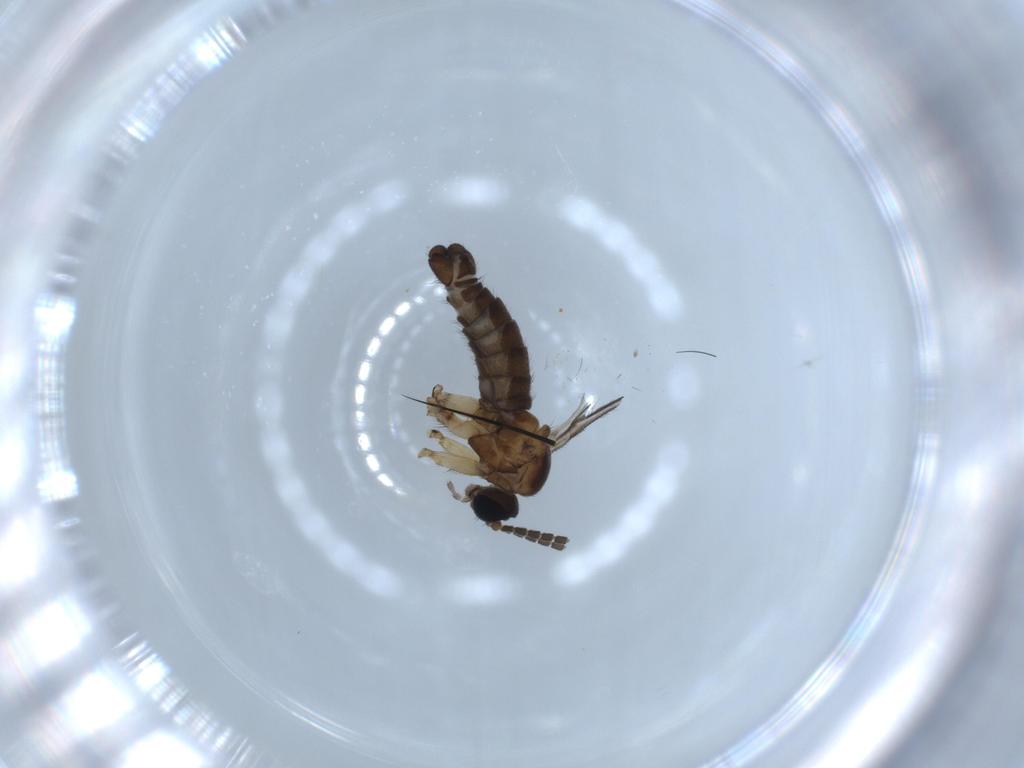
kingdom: Animalia
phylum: Arthropoda
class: Insecta
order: Diptera
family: Sciaridae
